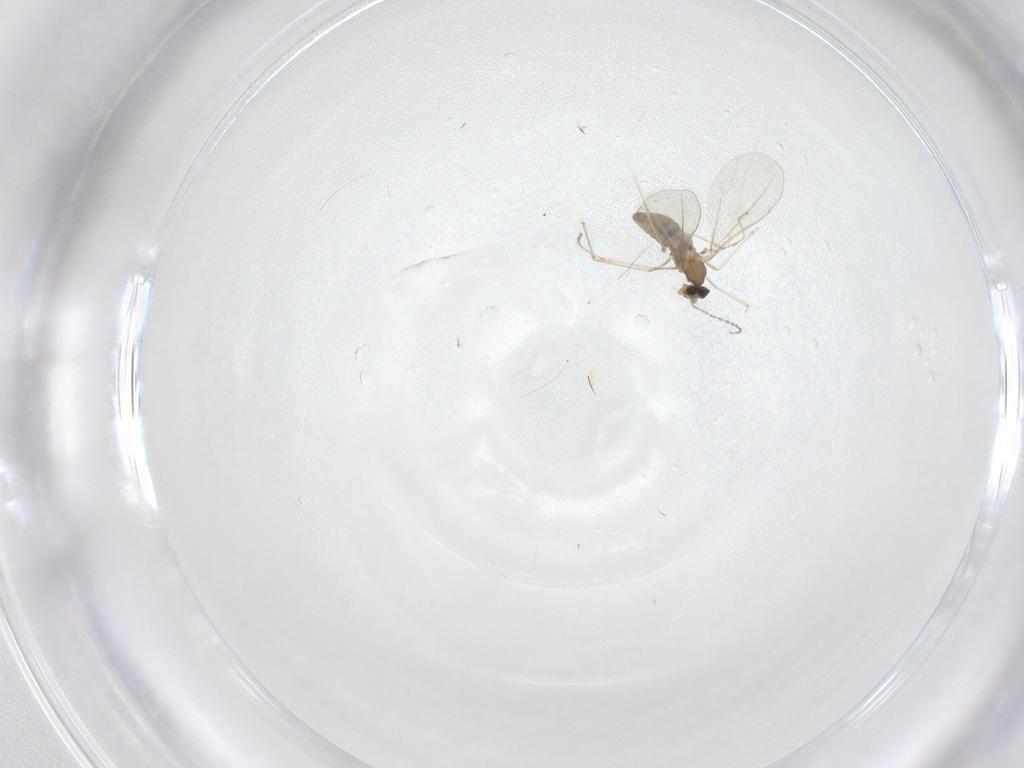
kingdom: Animalia
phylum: Arthropoda
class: Insecta
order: Diptera
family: Cecidomyiidae
